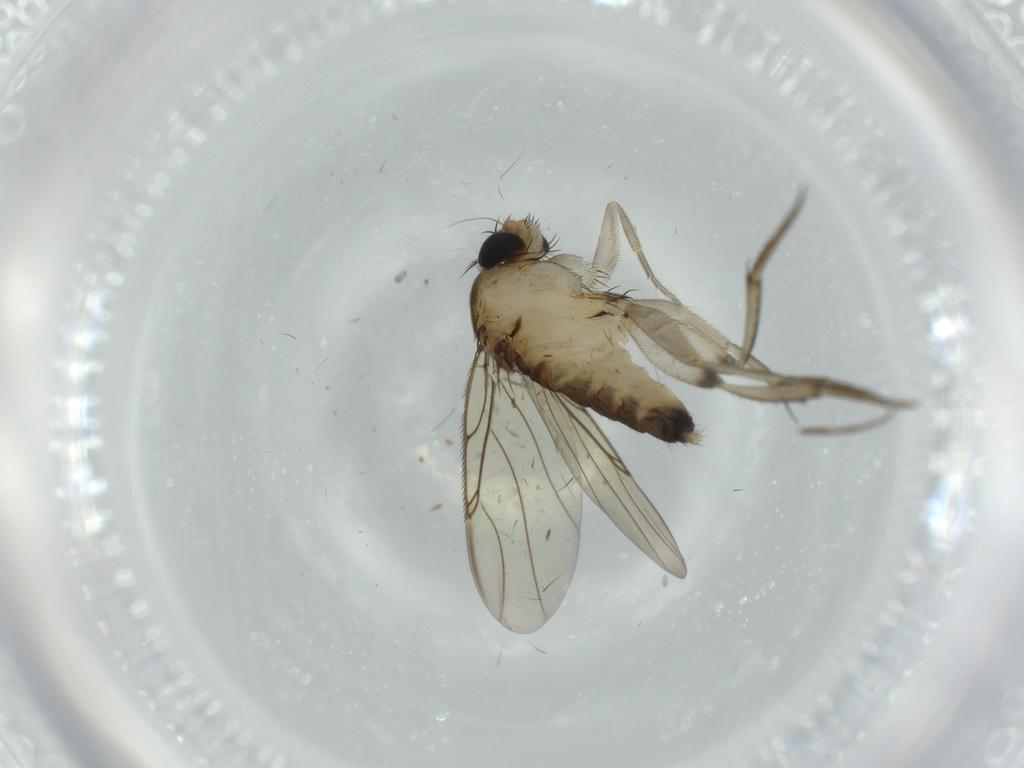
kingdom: Animalia
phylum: Arthropoda
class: Insecta
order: Diptera
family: Phoridae
